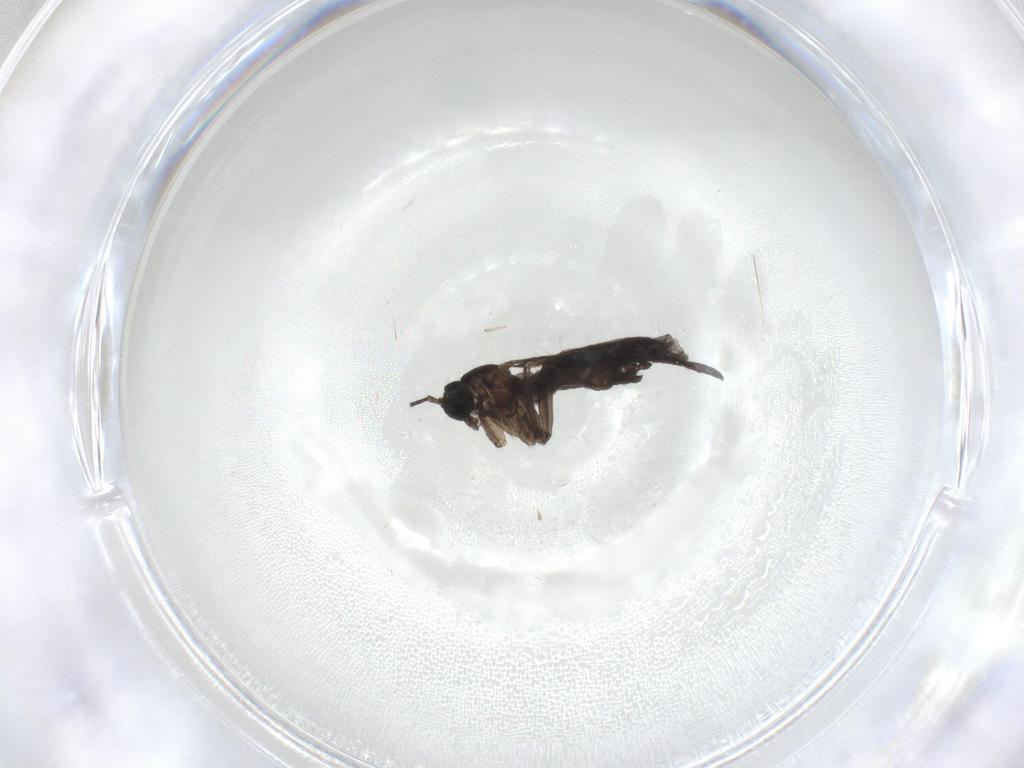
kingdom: Animalia
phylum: Arthropoda
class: Insecta
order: Diptera
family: Sciaridae
